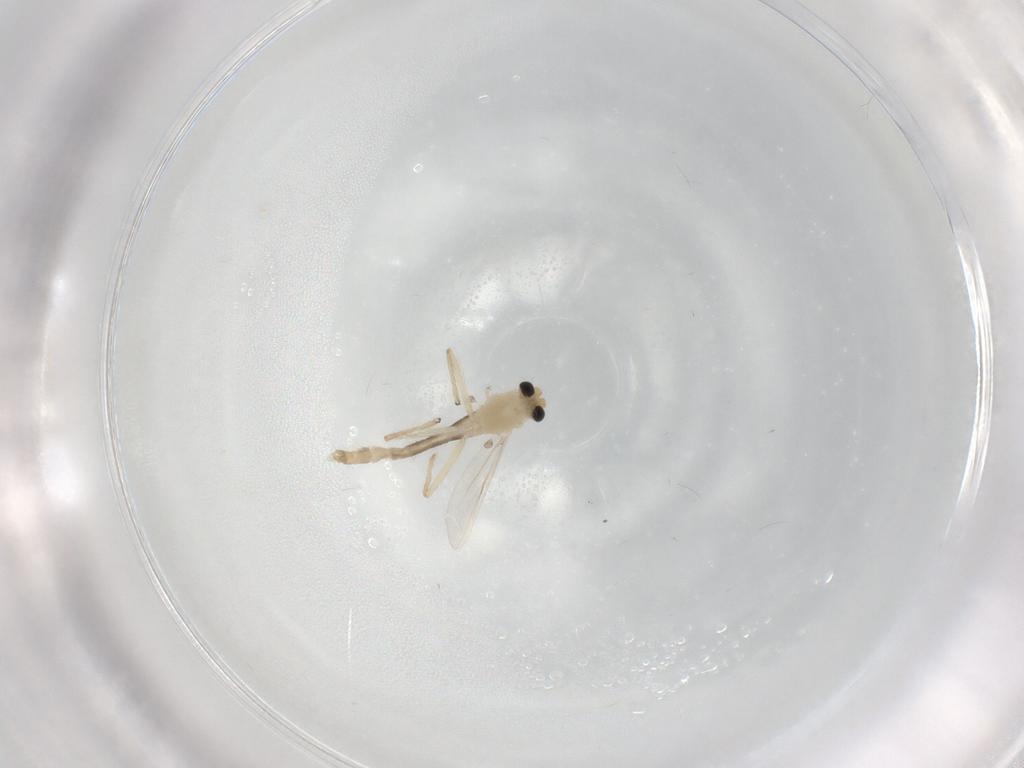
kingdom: Animalia
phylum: Arthropoda
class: Insecta
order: Diptera
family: Chironomidae
